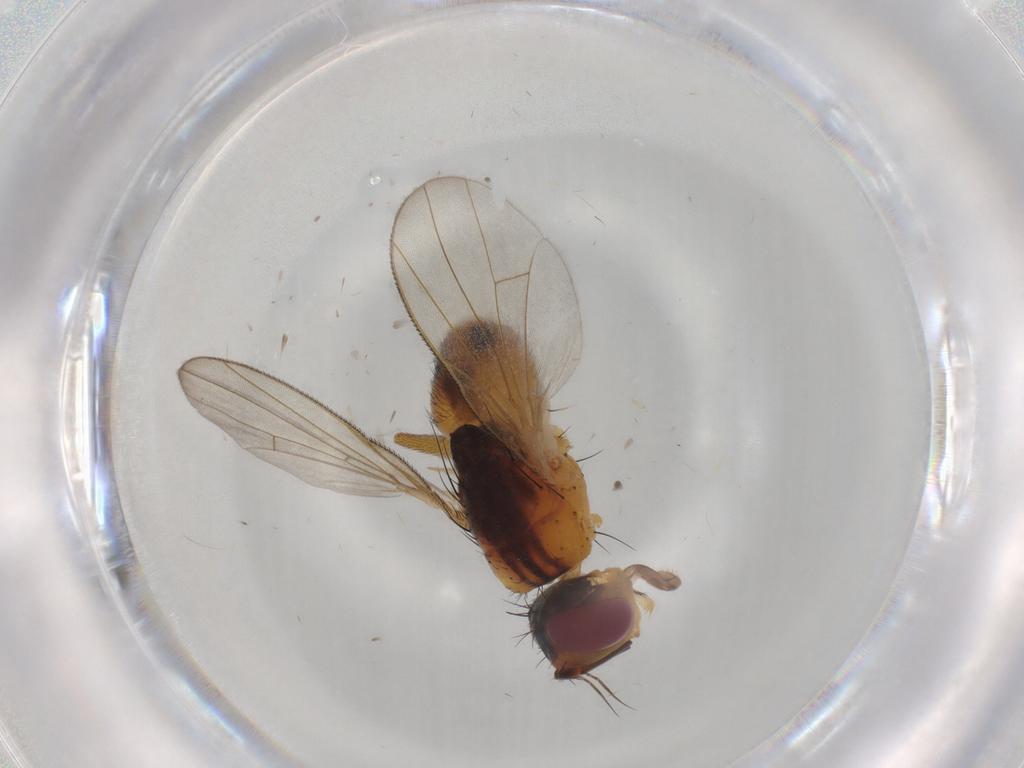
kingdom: Animalia
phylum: Arthropoda
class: Insecta
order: Diptera
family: Muscidae
